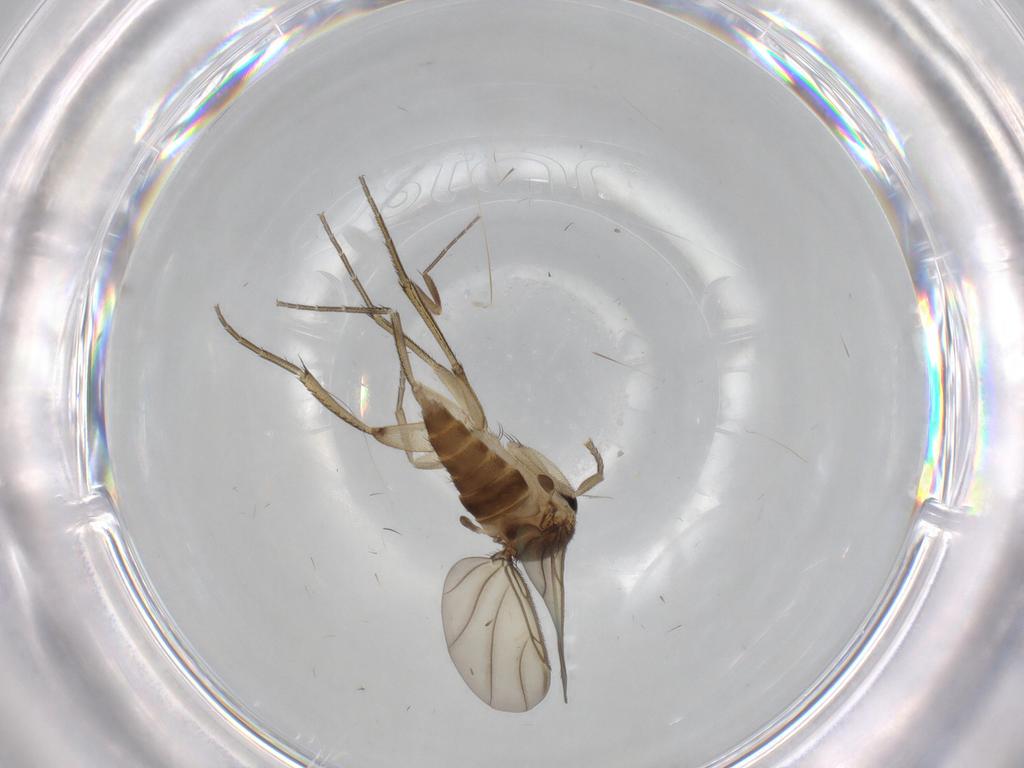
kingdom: Animalia
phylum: Arthropoda
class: Insecta
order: Diptera
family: Phoridae
